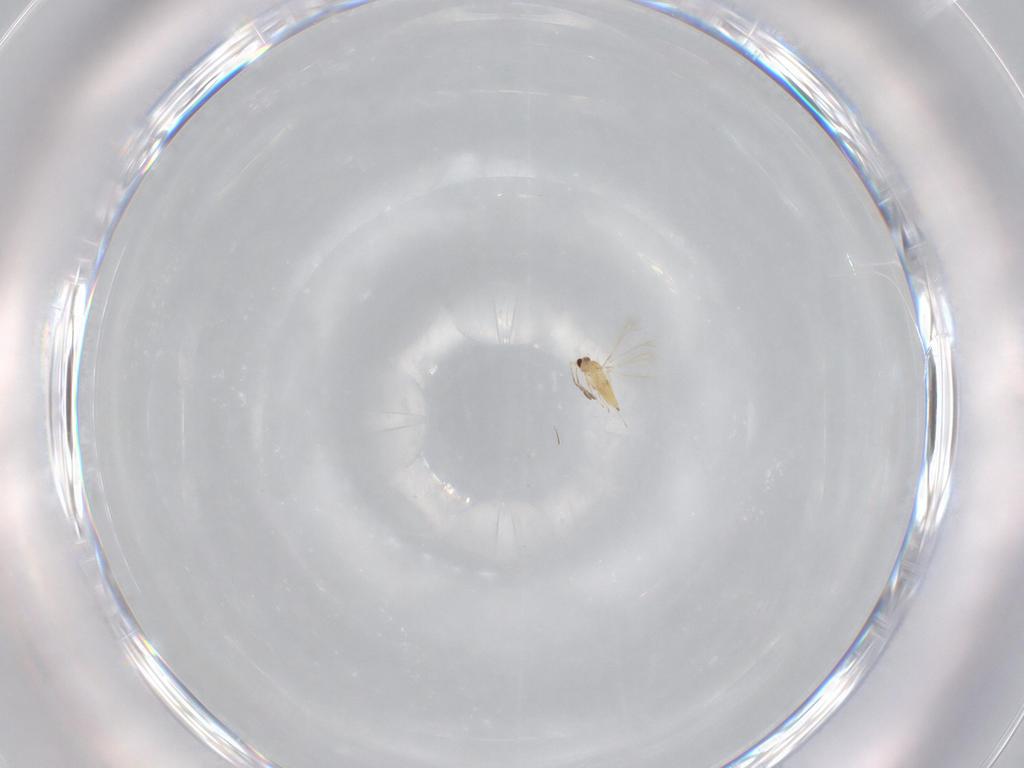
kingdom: Animalia
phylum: Arthropoda
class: Insecta
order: Hymenoptera
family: Mymaridae
